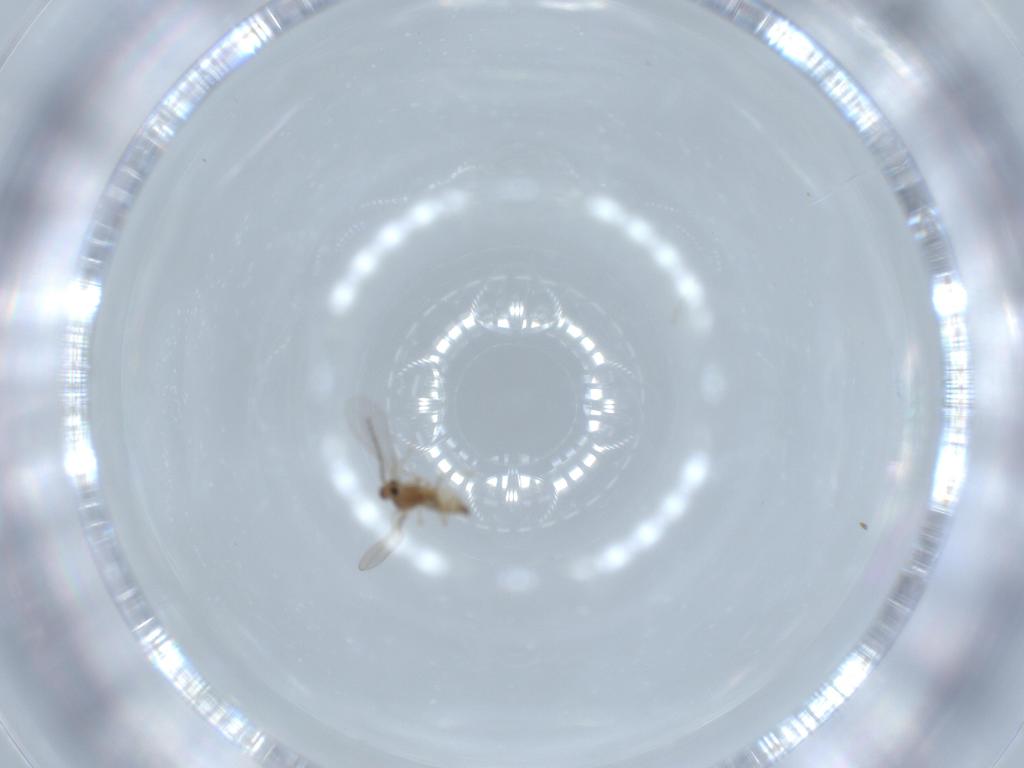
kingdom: Animalia
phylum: Arthropoda
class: Insecta
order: Diptera
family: Cecidomyiidae
